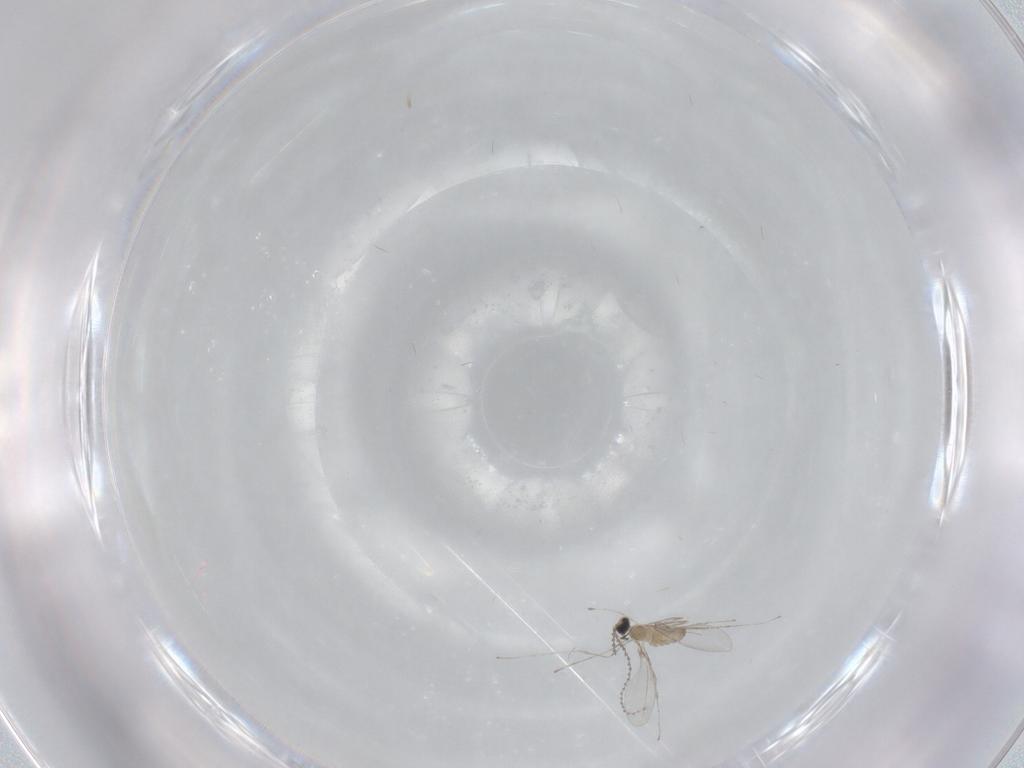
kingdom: Animalia
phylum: Arthropoda
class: Insecta
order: Diptera
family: Cecidomyiidae
